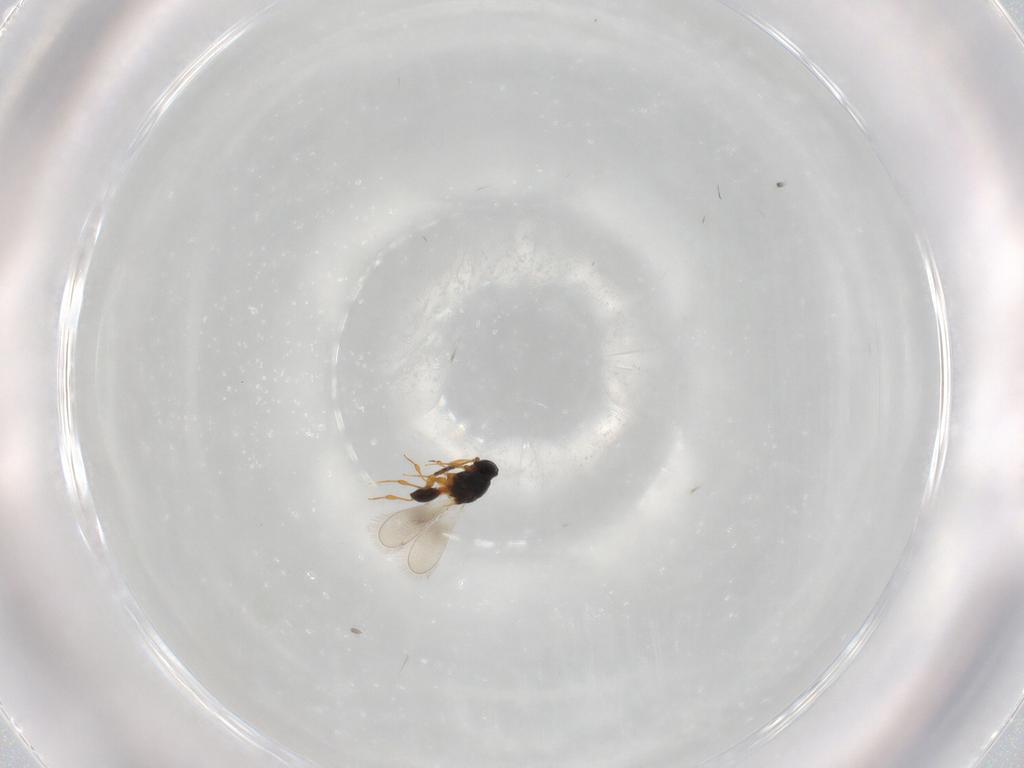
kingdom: Animalia
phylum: Arthropoda
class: Insecta
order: Hymenoptera
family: Platygastridae
